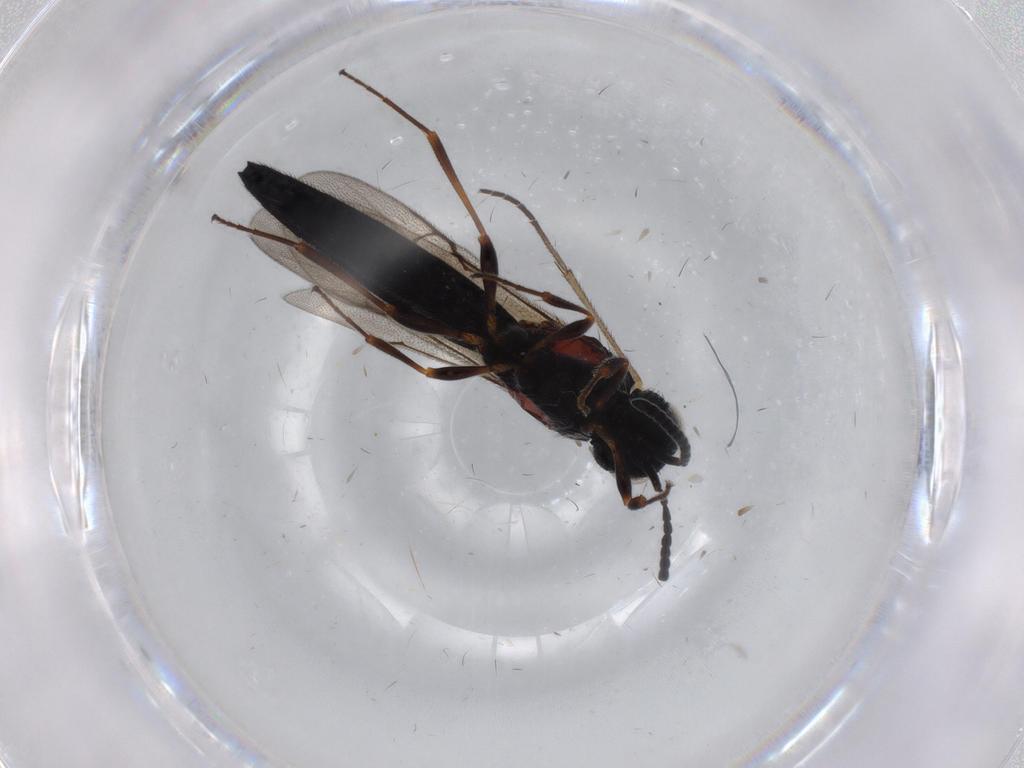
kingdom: Animalia
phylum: Arthropoda
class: Insecta
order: Hymenoptera
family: Scelionidae
